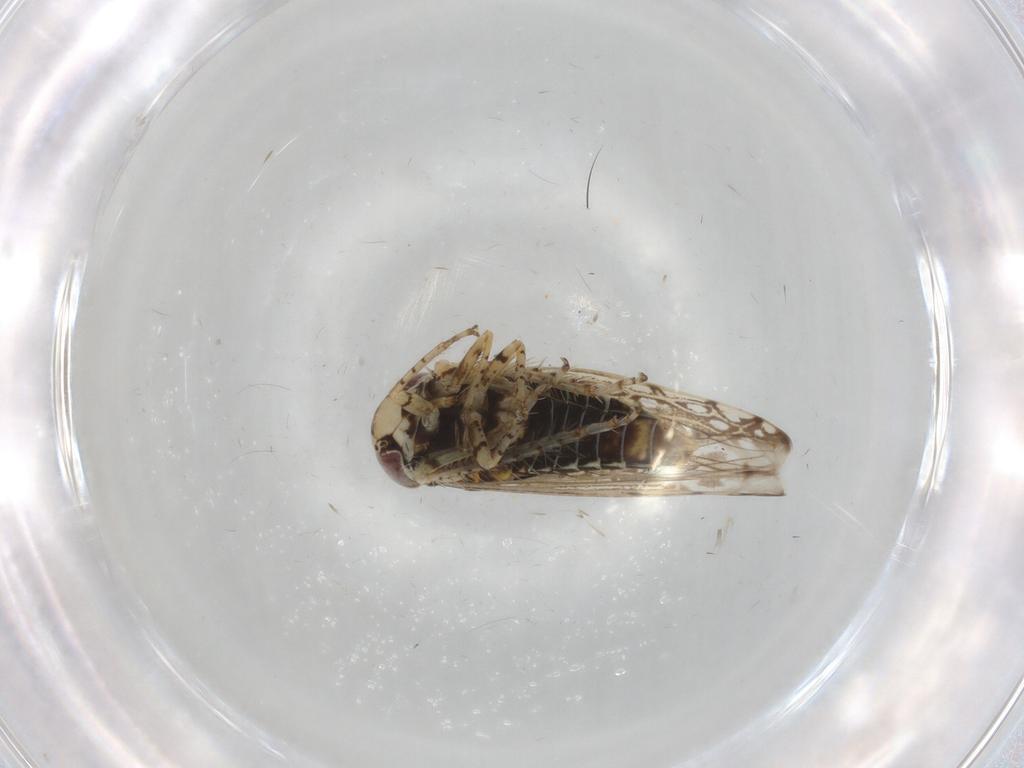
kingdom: Animalia
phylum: Arthropoda
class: Insecta
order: Hemiptera
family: Cicadellidae
